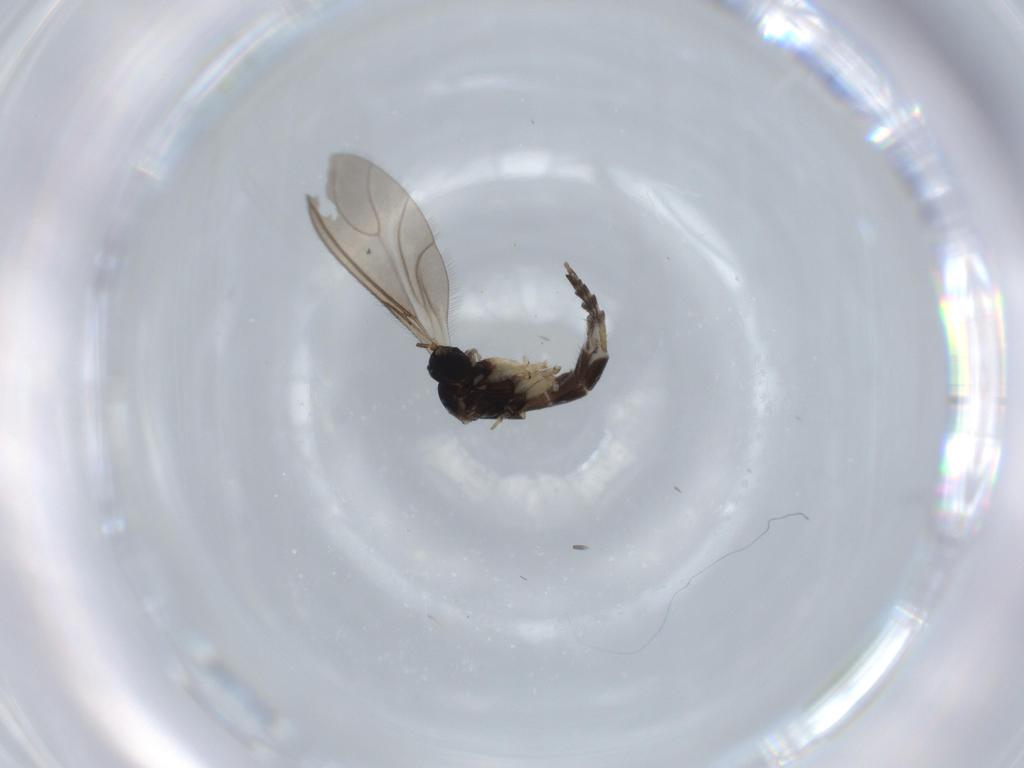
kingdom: Animalia
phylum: Arthropoda
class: Insecta
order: Diptera
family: Sciaridae
